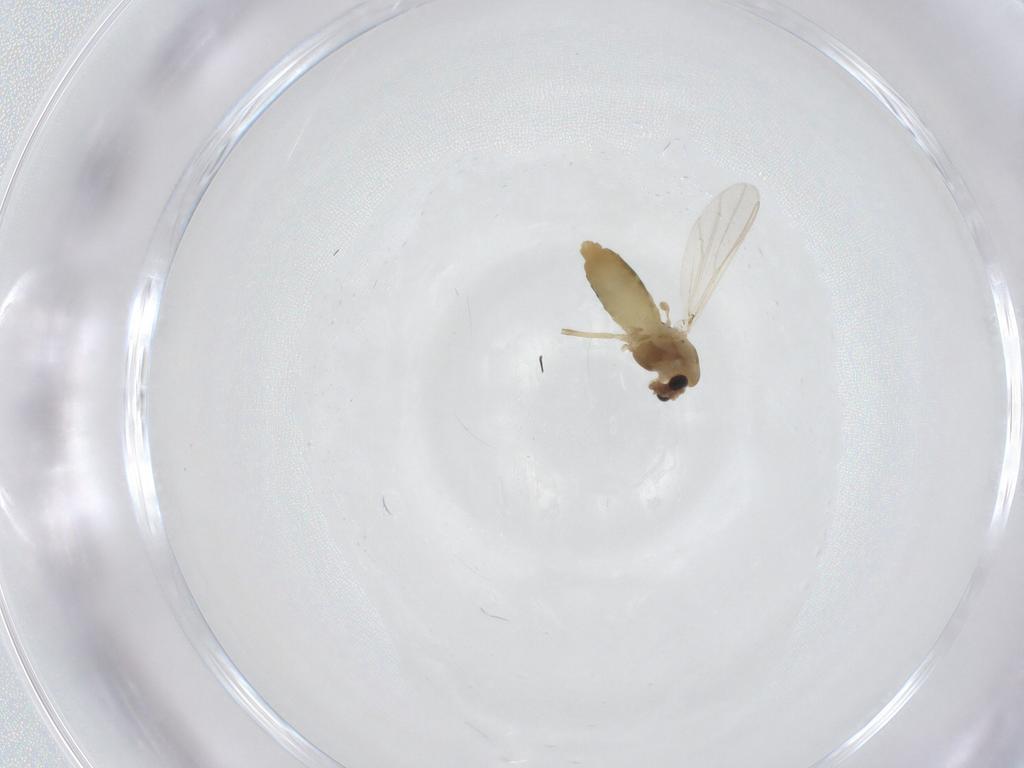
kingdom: Animalia
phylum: Arthropoda
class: Insecta
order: Diptera
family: Chironomidae
